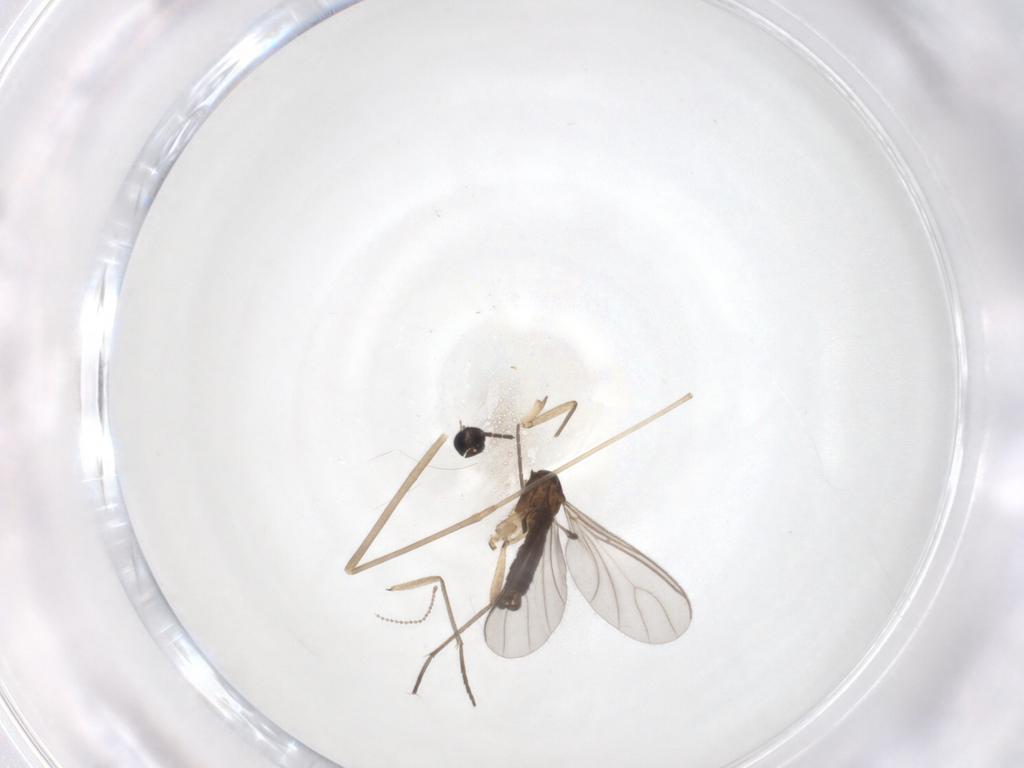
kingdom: Animalia
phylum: Arthropoda
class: Insecta
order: Diptera
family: Sciaridae
